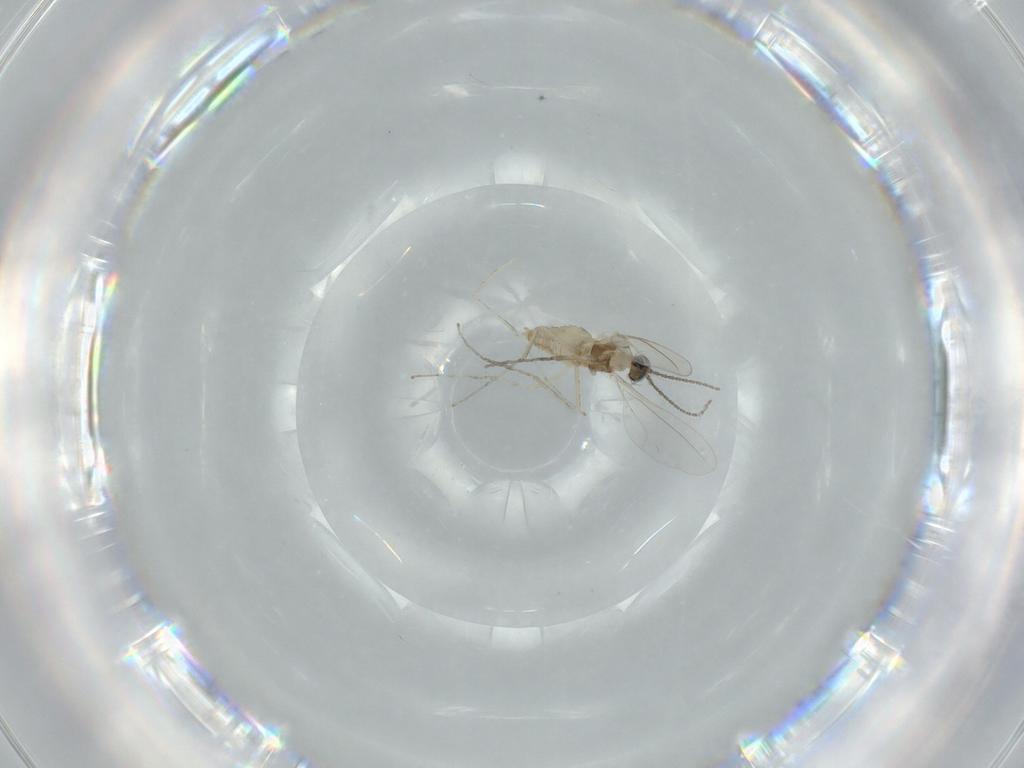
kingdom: Animalia
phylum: Arthropoda
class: Insecta
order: Diptera
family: Cecidomyiidae
